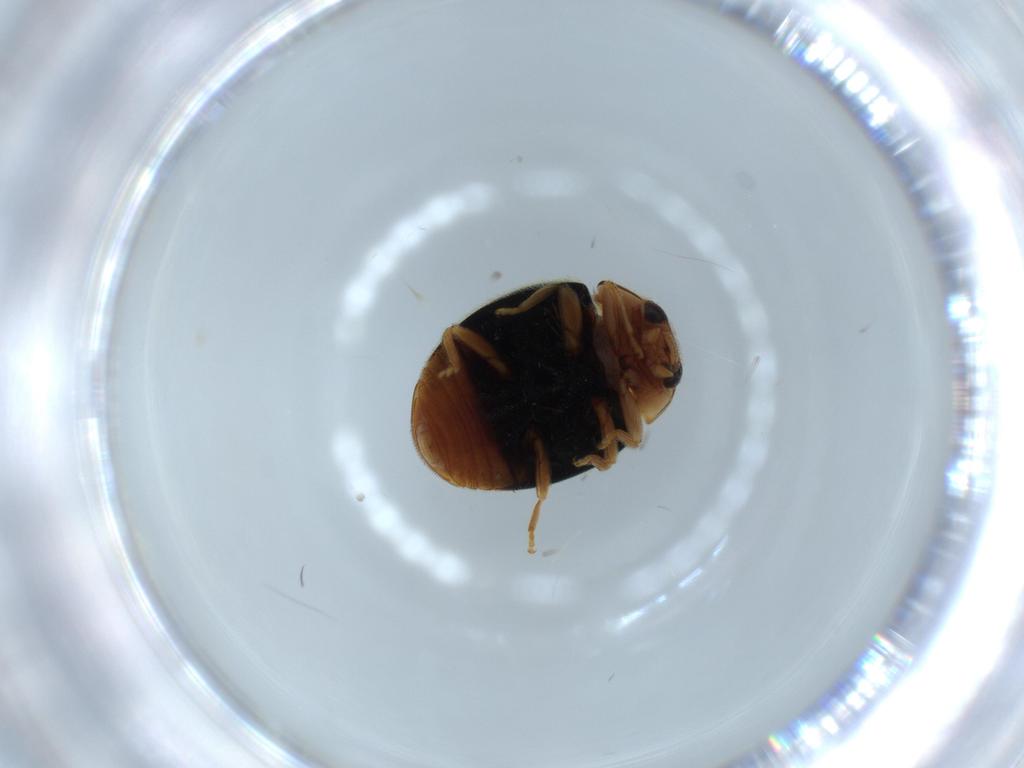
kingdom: Animalia
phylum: Arthropoda
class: Insecta
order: Coleoptera
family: Coccinellidae
